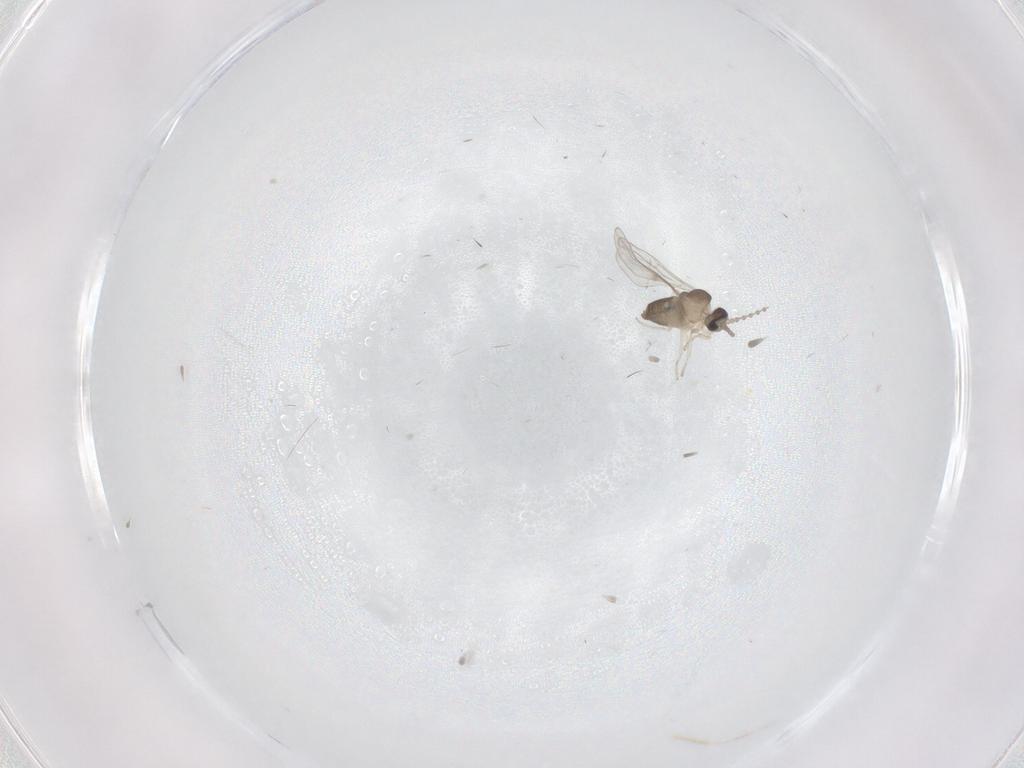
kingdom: Animalia
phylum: Arthropoda
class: Insecta
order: Diptera
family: Cecidomyiidae
